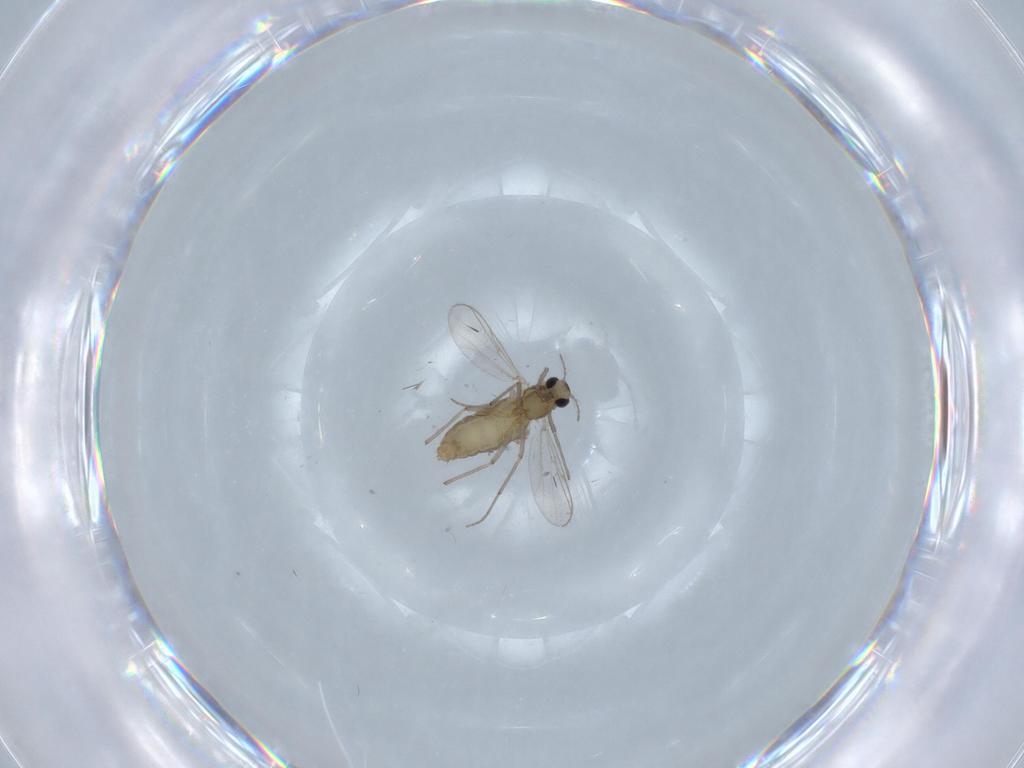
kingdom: Animalia
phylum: Arthropoda
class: Insecta
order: Diptera
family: Chironomidae
